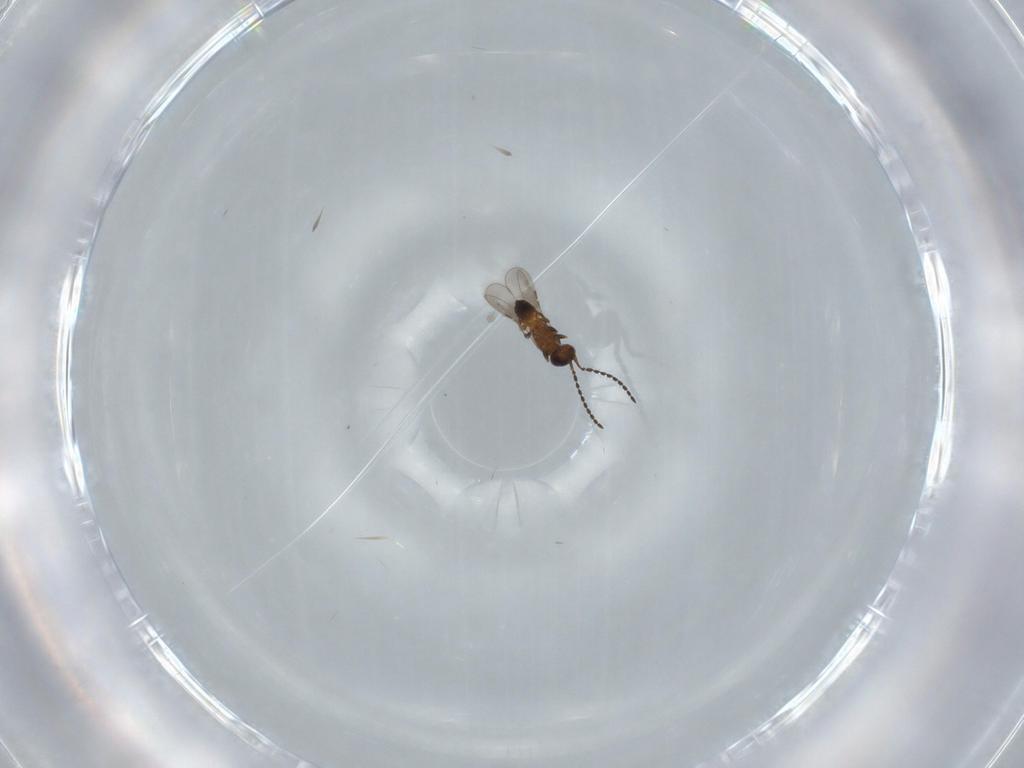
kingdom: Animalia
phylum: Arthropoda
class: Insecta
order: Hymenoptera
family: Ceraphronidae
